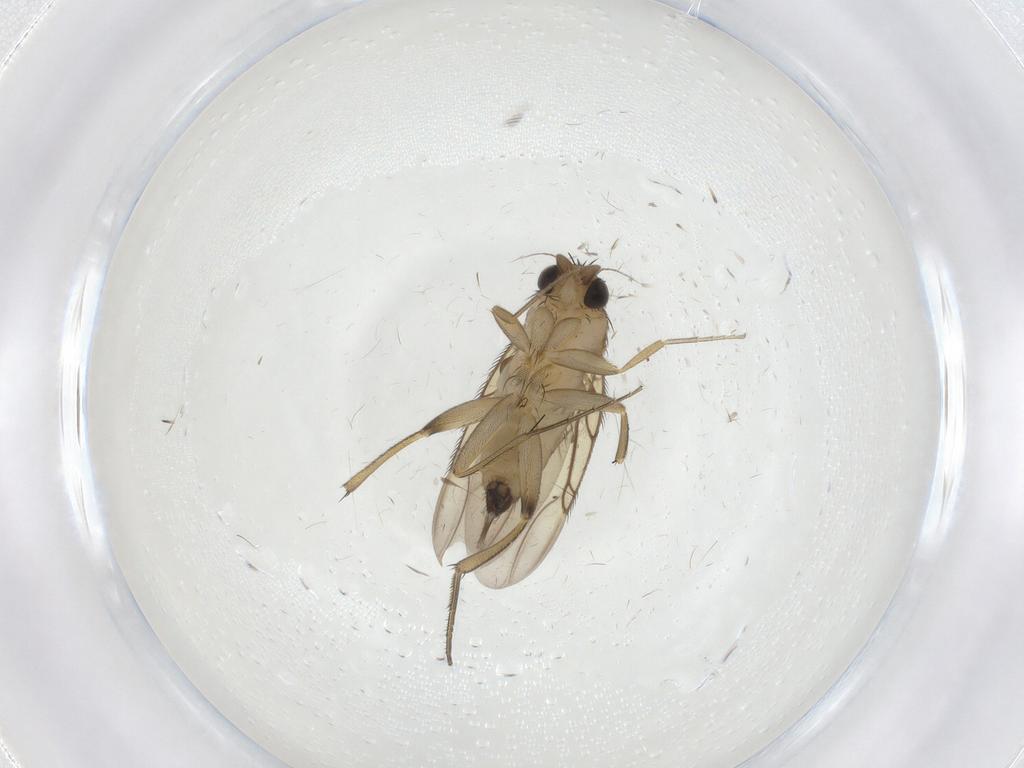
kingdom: Animalia
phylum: Arthropoda
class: Insecta
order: Diptera
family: Phoridae
